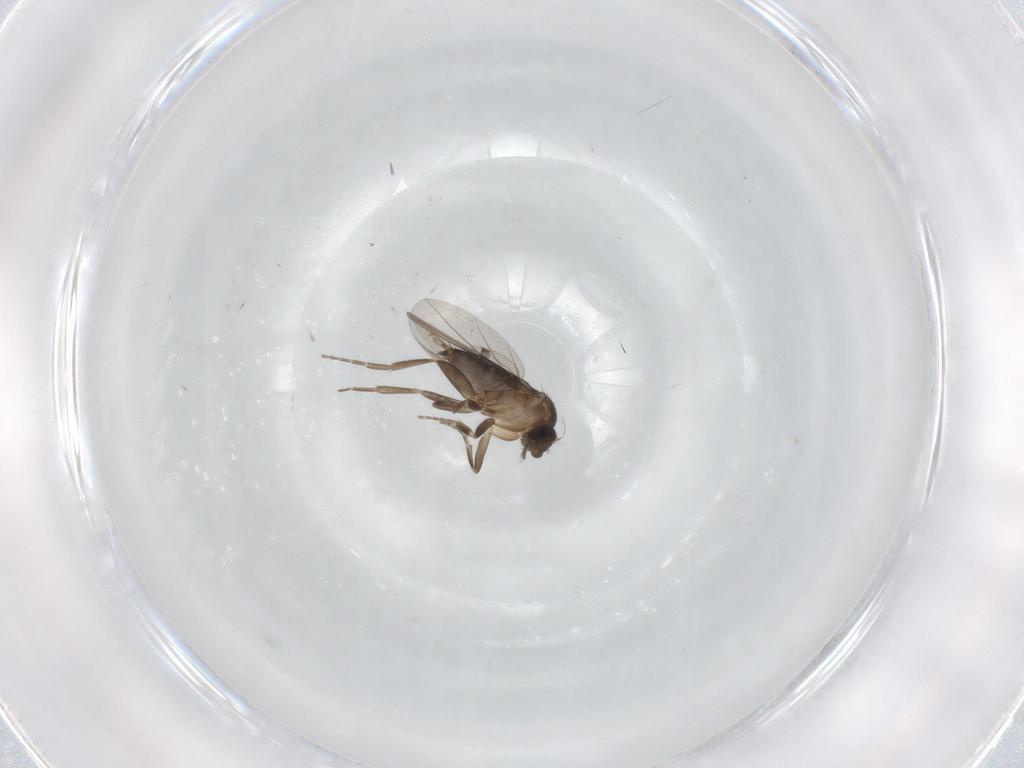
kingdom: Animalia
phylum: Arthropoda
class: Insecta
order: Diptera
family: Phoridae
